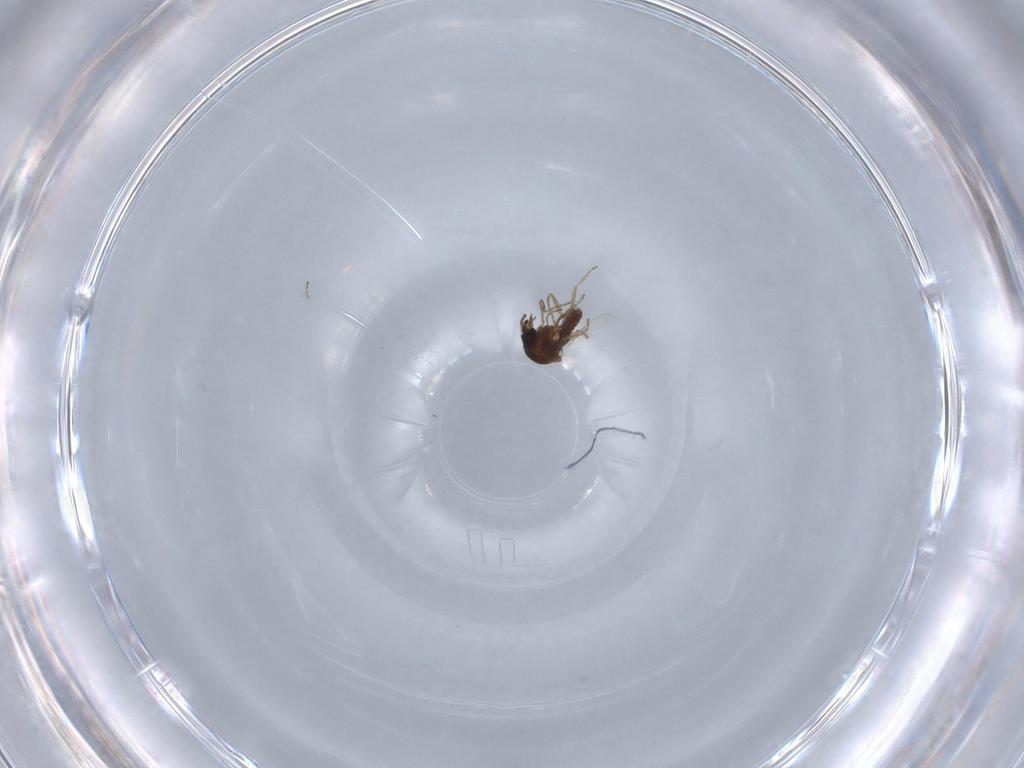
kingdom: Animalia
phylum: Arthropoda
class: Insecta
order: Diptera
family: Ceratopogonidae
